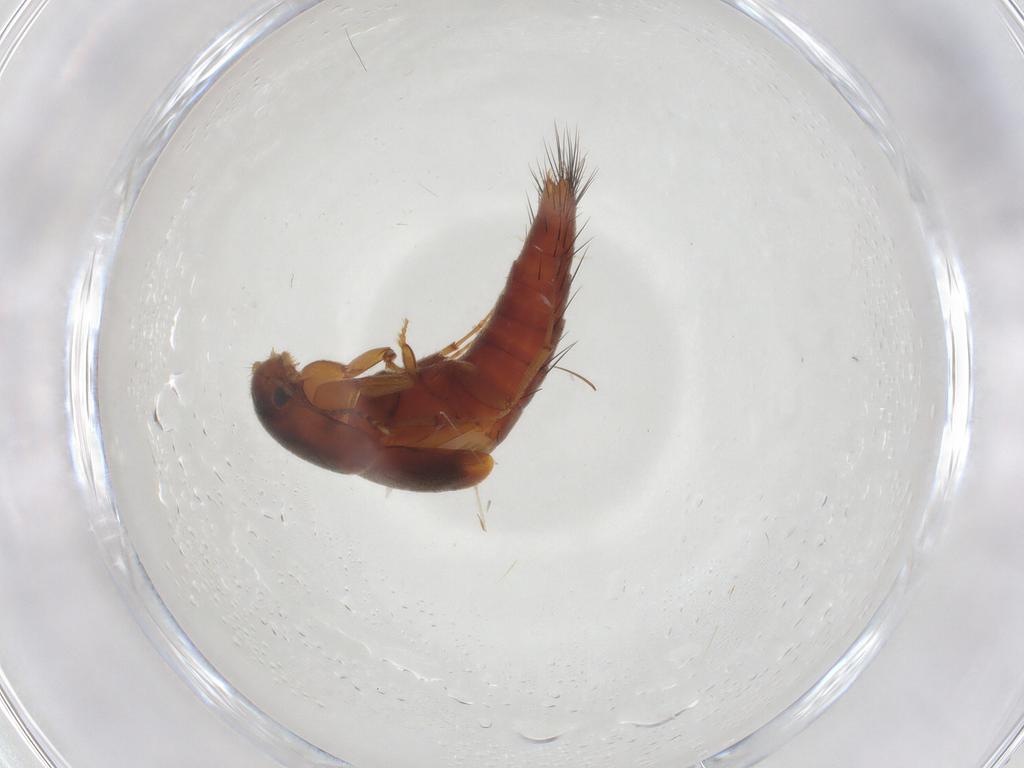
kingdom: Animalia
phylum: Arthropoda
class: Insecta
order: Coleoptera
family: Staphylinidae
